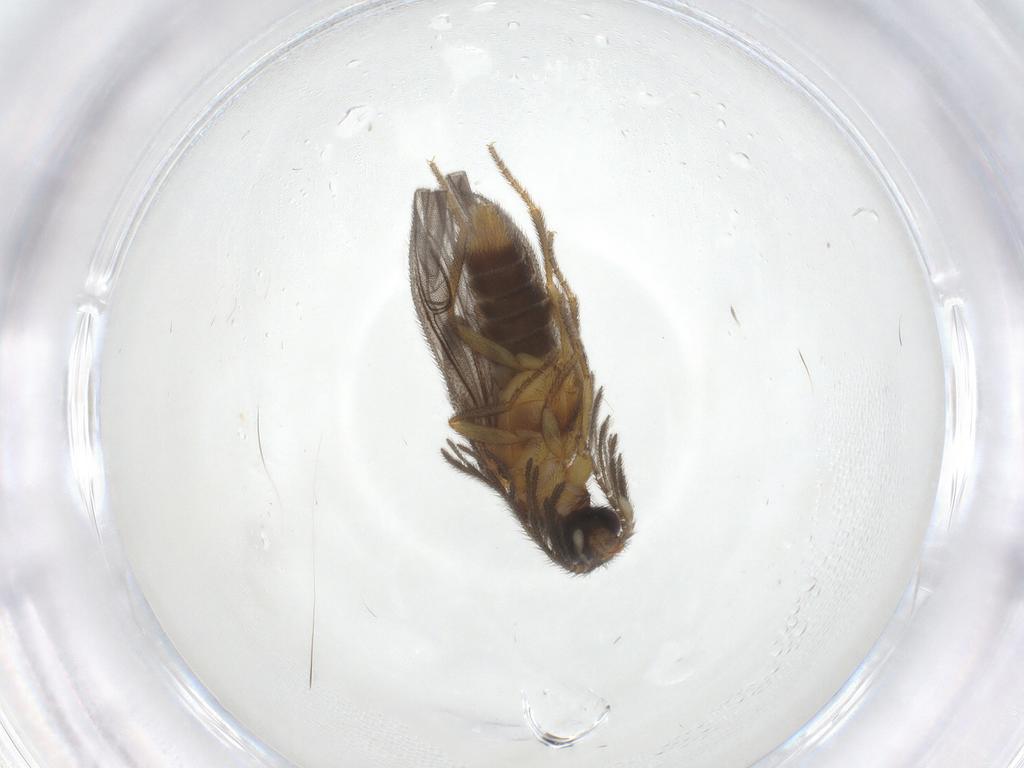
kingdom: Animalia
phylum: Arthropoda
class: Insecta
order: Coleoptera
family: Phengodidae
